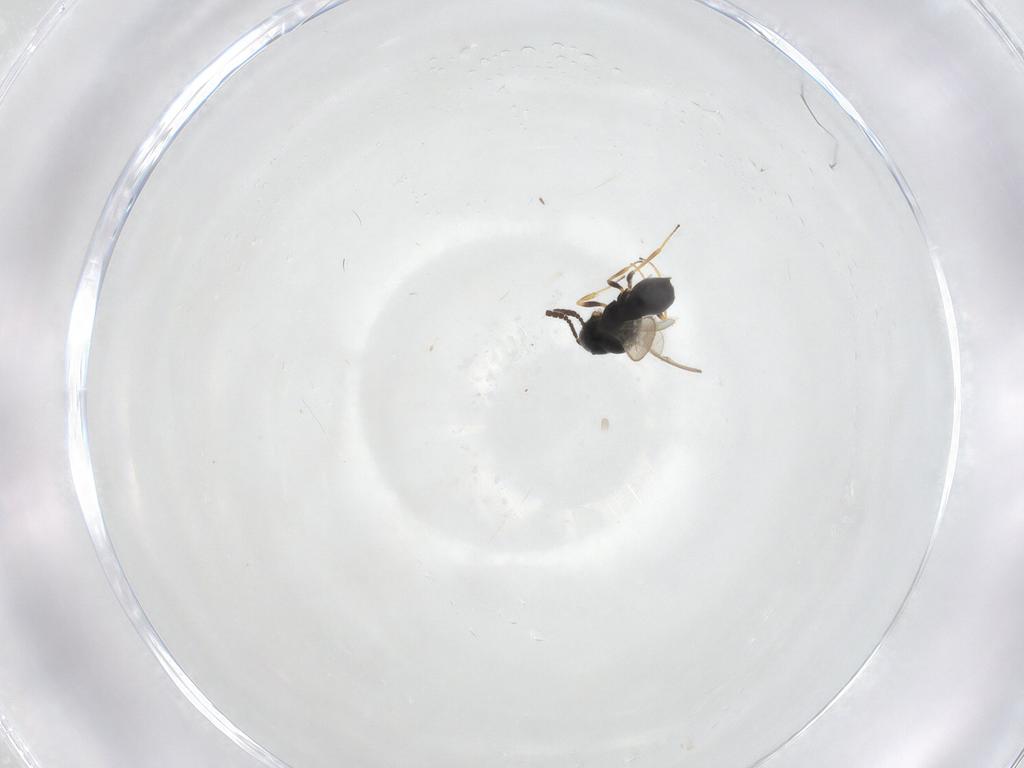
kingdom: Animalia
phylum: Arthropoda
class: Insecta
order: Hymenoptera
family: Scelionidae
